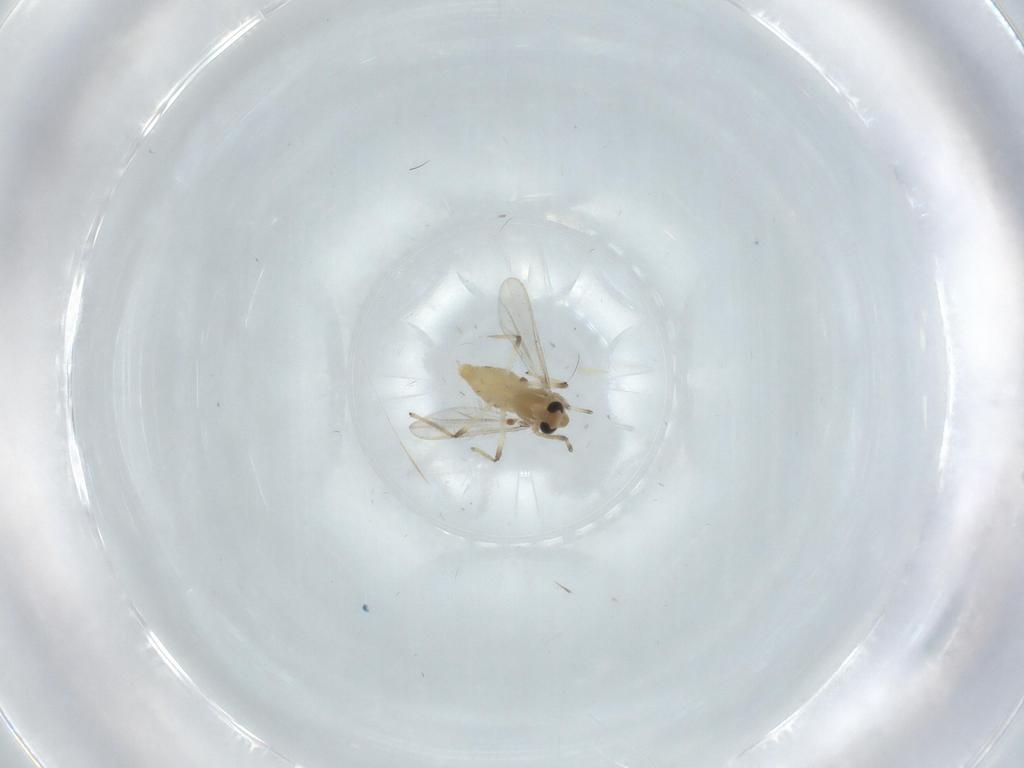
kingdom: Animalia
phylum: Arthropoda
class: Insecta
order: Diptera
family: Chironomidae
